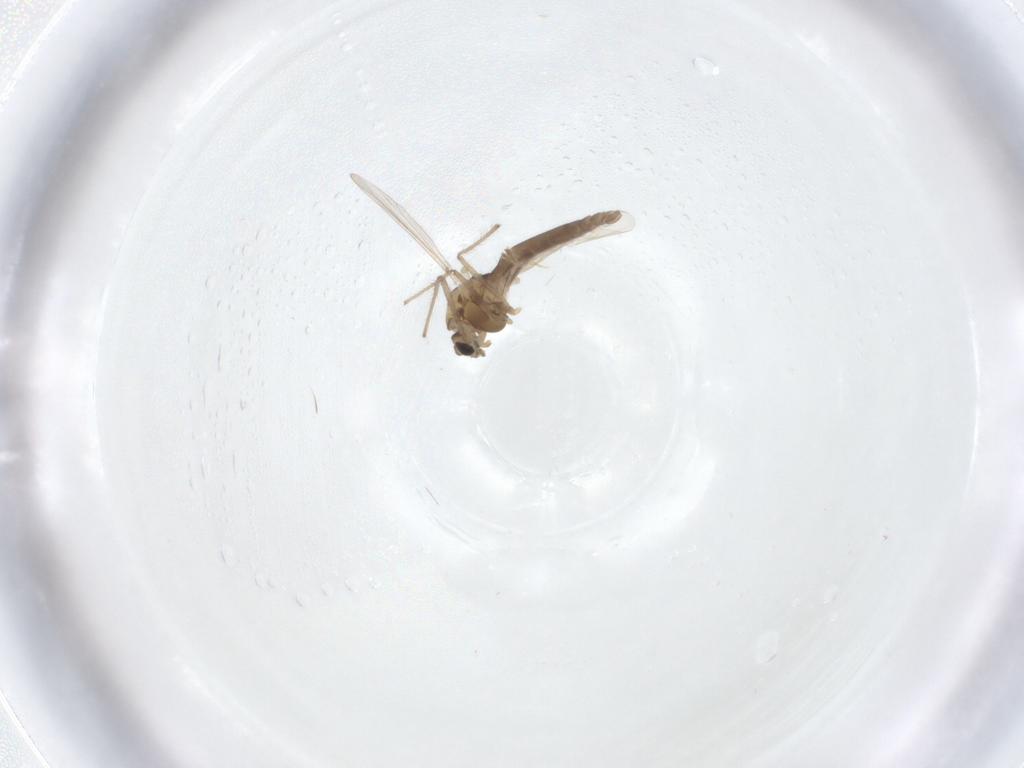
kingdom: Animalia
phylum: Arthropoda
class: Insecta
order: Diptera
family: Chironomidae
